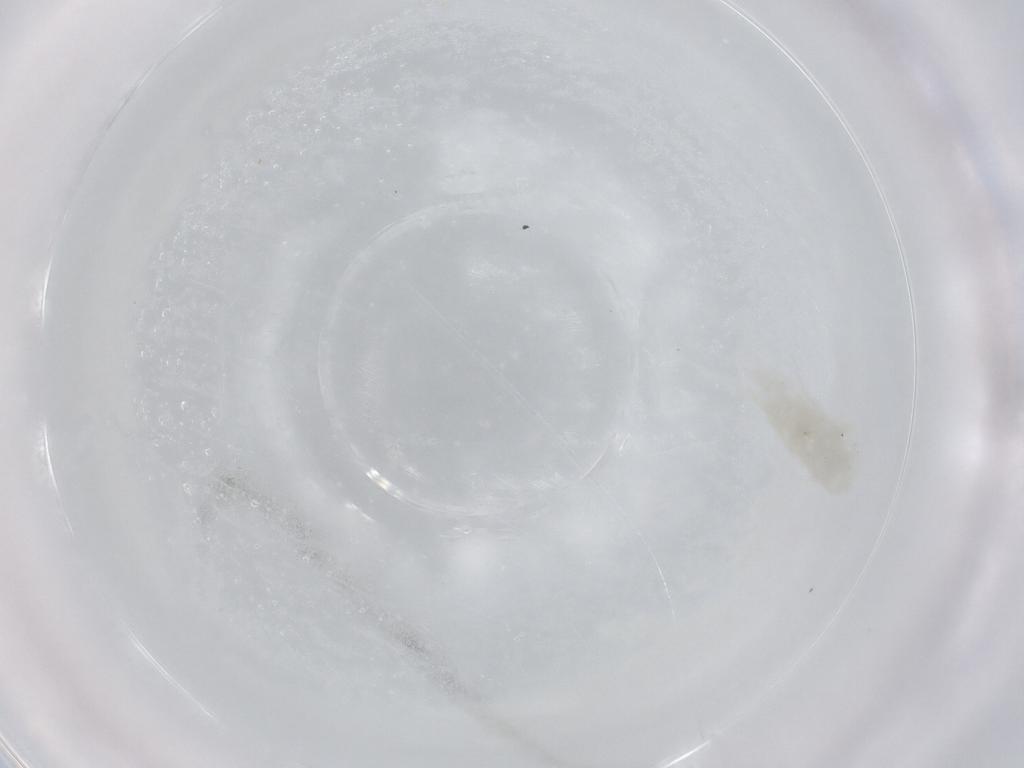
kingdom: Animalia
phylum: Arthropoda
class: Copepoda
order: Calanoida
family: Centropagidae
